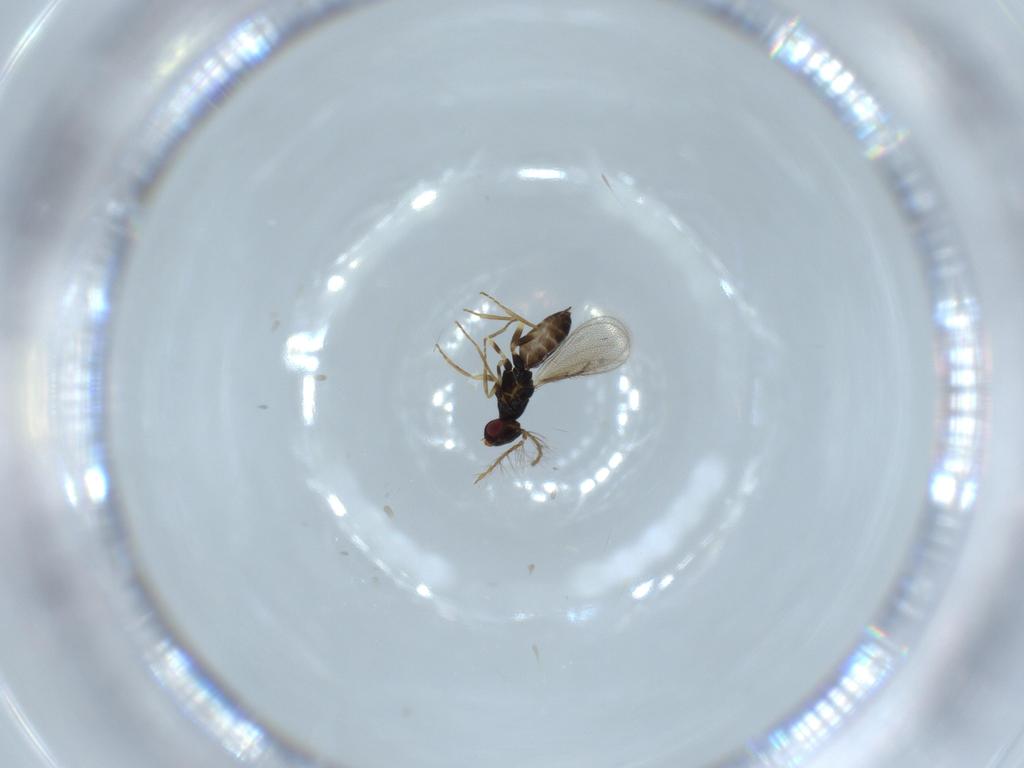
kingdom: Animalia
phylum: Arthropoda
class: Insecta
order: Hymenoptera
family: Eulophidae
